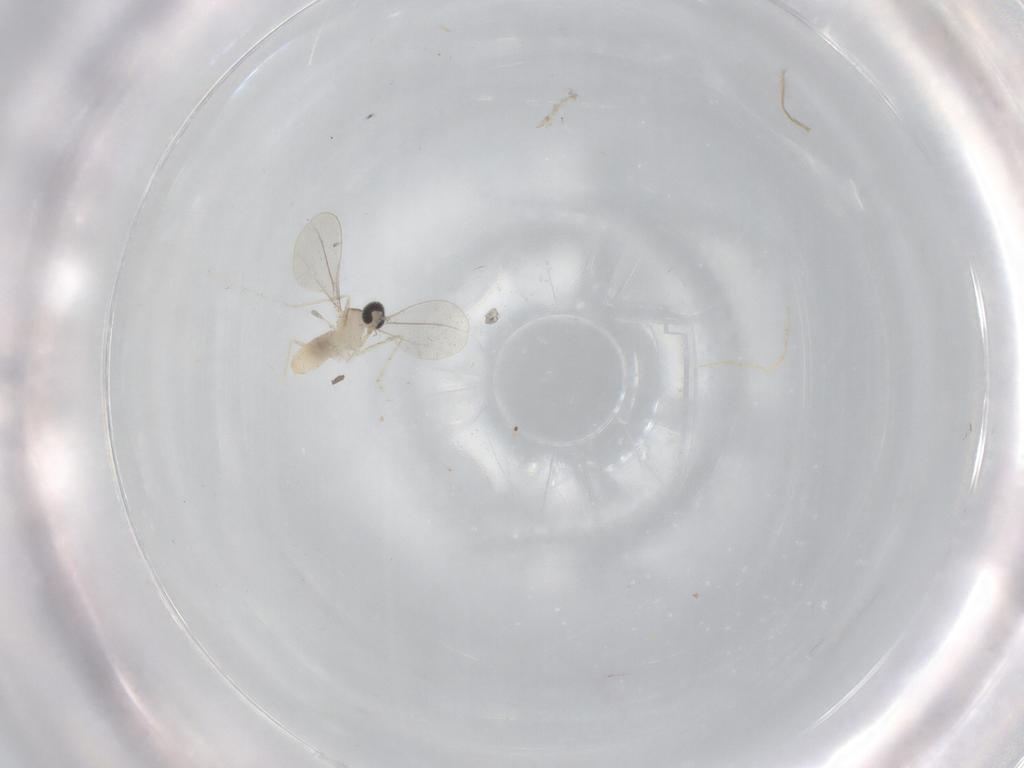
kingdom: Animalia
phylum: Arthropoda
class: Insecta
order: Diptera
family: Cecidomyiidae
